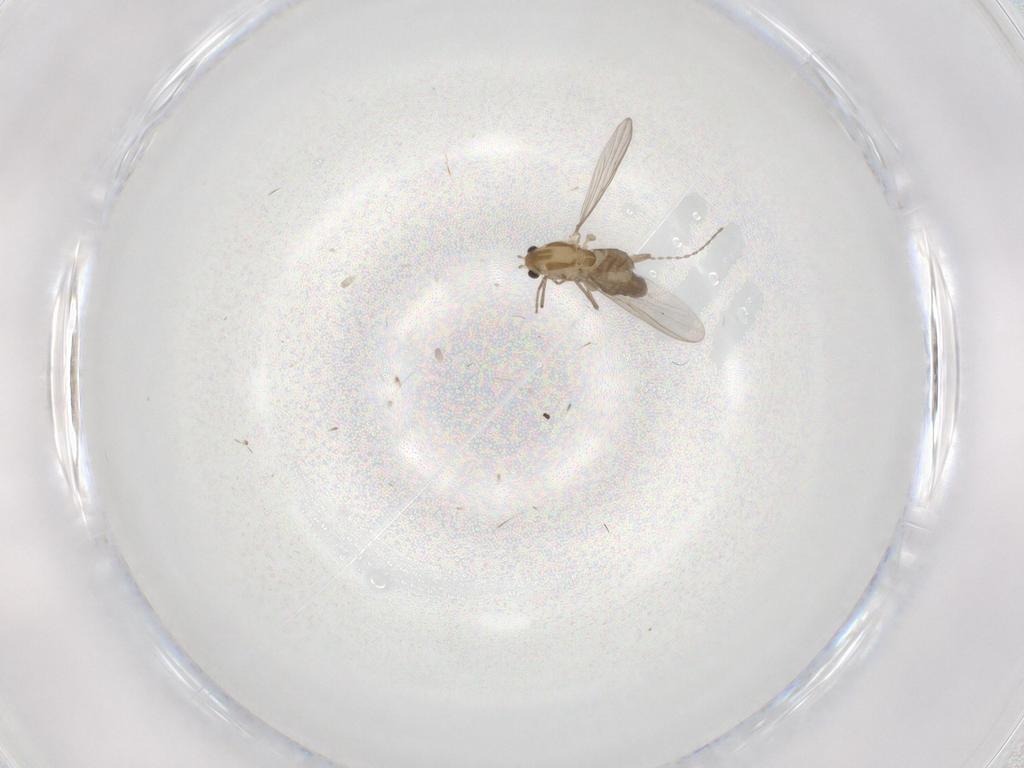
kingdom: Animalia
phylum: Arthropoda
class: Insecta
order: Diptera
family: Cecidomyiidae
